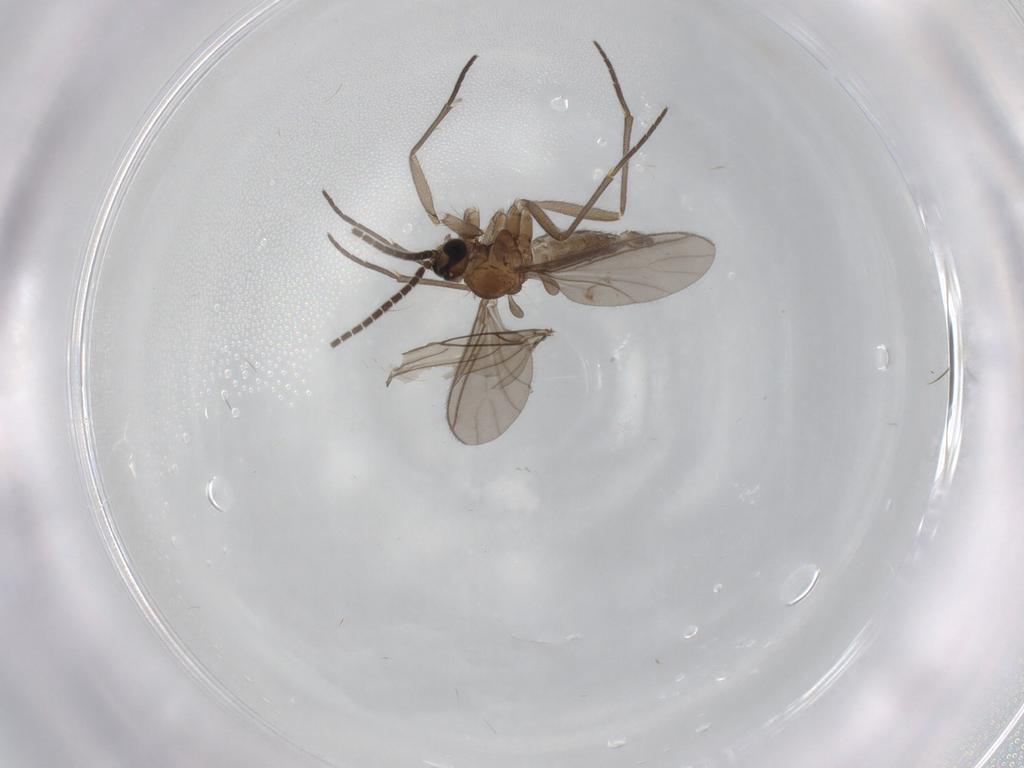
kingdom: Animalia
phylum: Arthropoda
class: Insecta
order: Diptera
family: Sciaridae
